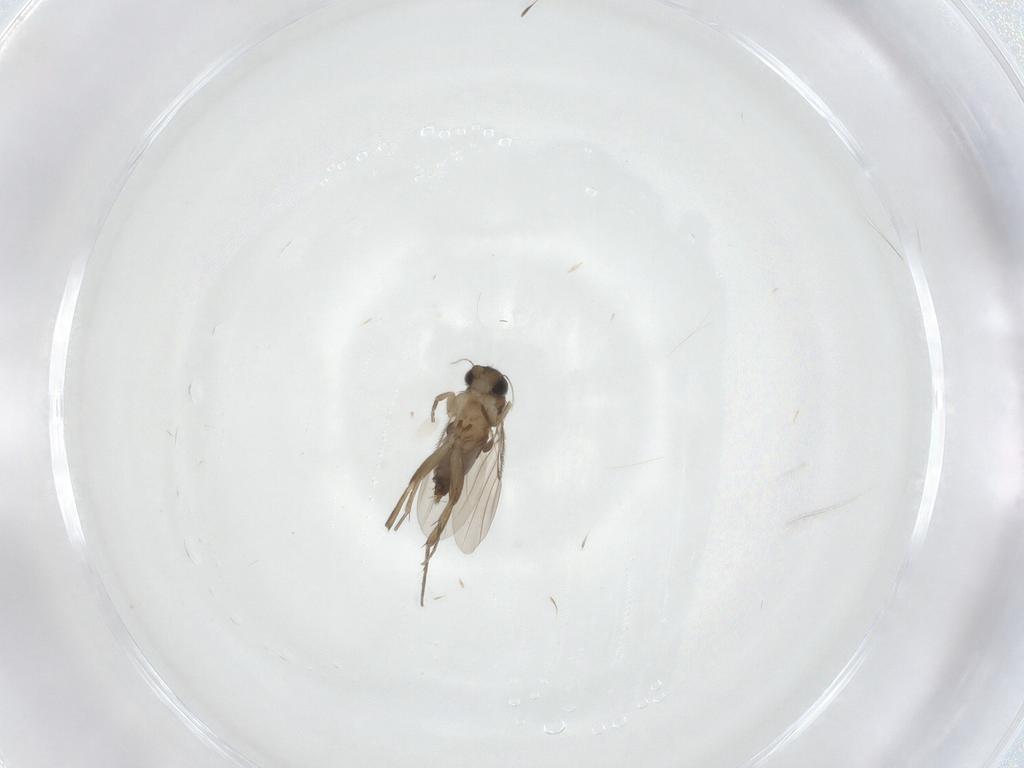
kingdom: Animalia
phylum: Arthropoda
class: Insecta
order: Diptera
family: Phoridae
